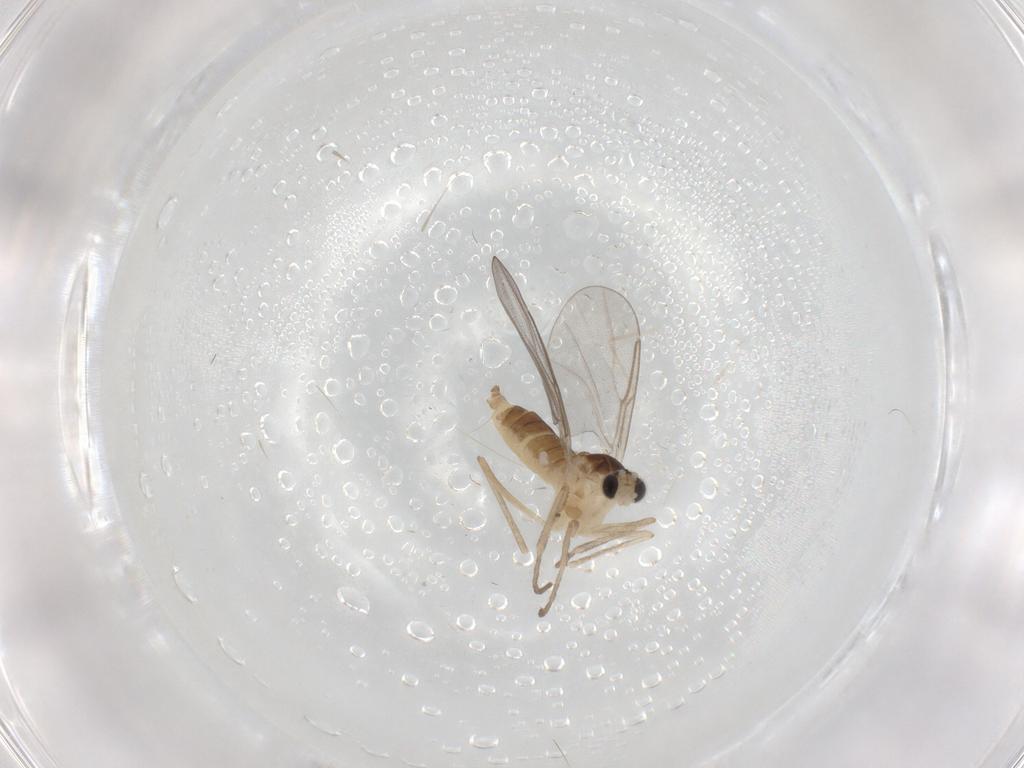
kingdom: Animalia
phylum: Arthropoda
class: Insecta
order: Diptera
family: Cecidomyiidae
